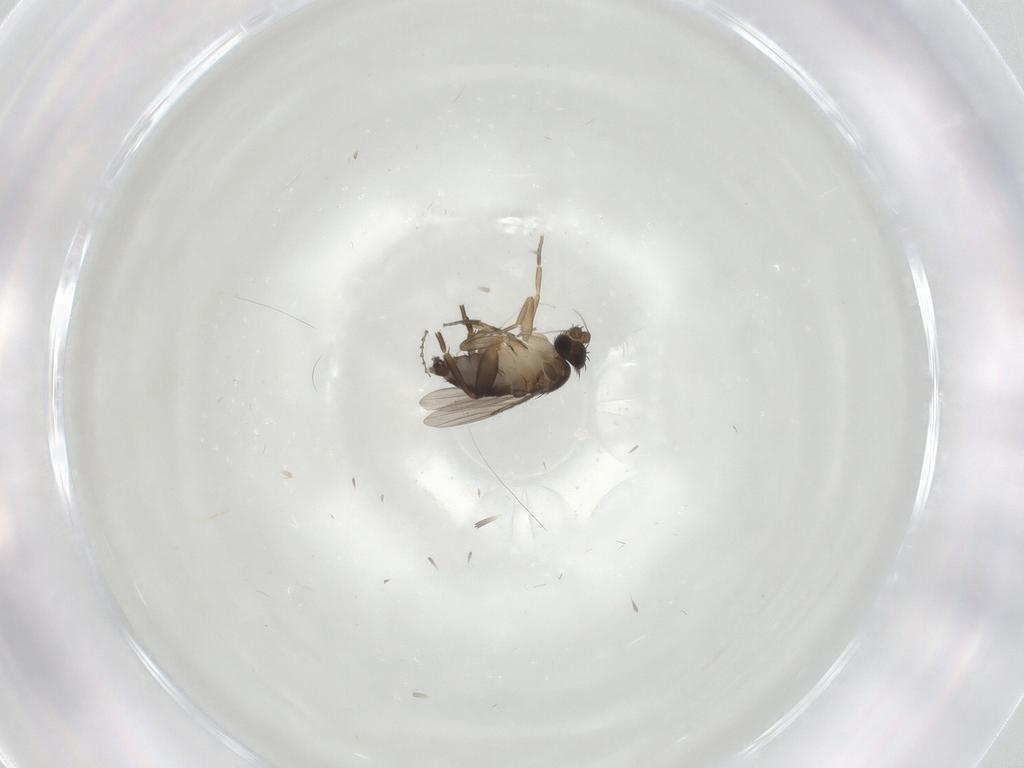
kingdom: Animalia
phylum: Arthropoda
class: Insecta
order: Diptera
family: Phoridae
